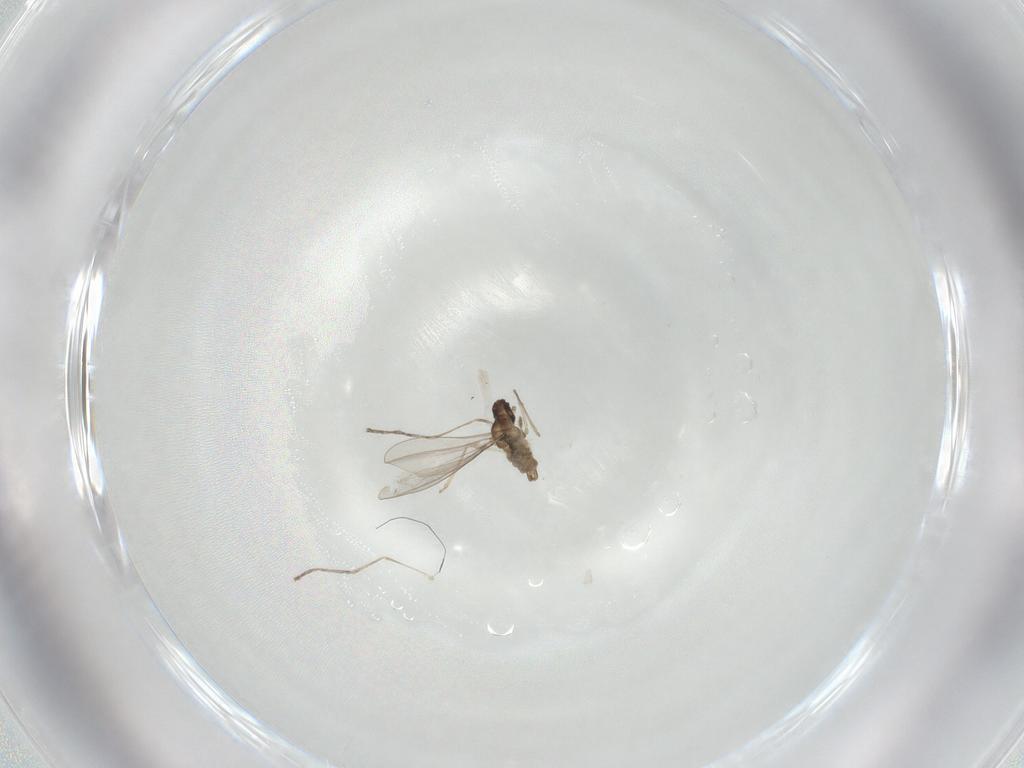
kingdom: Animalia
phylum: Arthropoda
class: Insecta
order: Diptera
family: Cecidomyiidae
